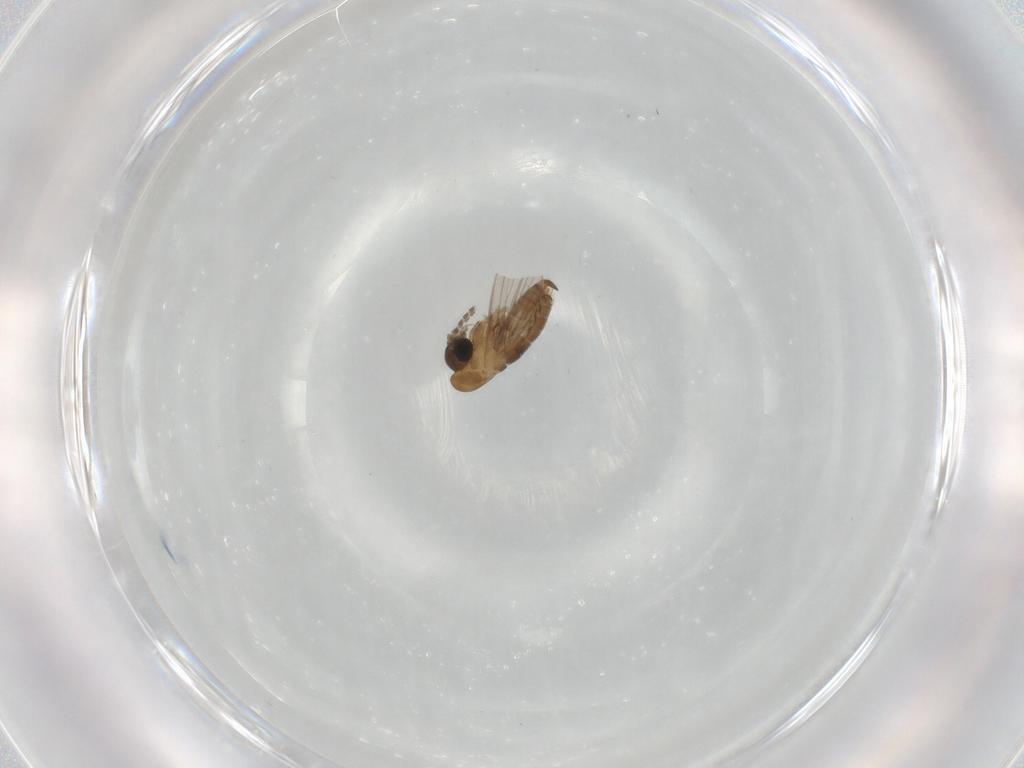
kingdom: Animalia
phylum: Arthropoda
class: Insecta
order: Diptera
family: Psychodidae
